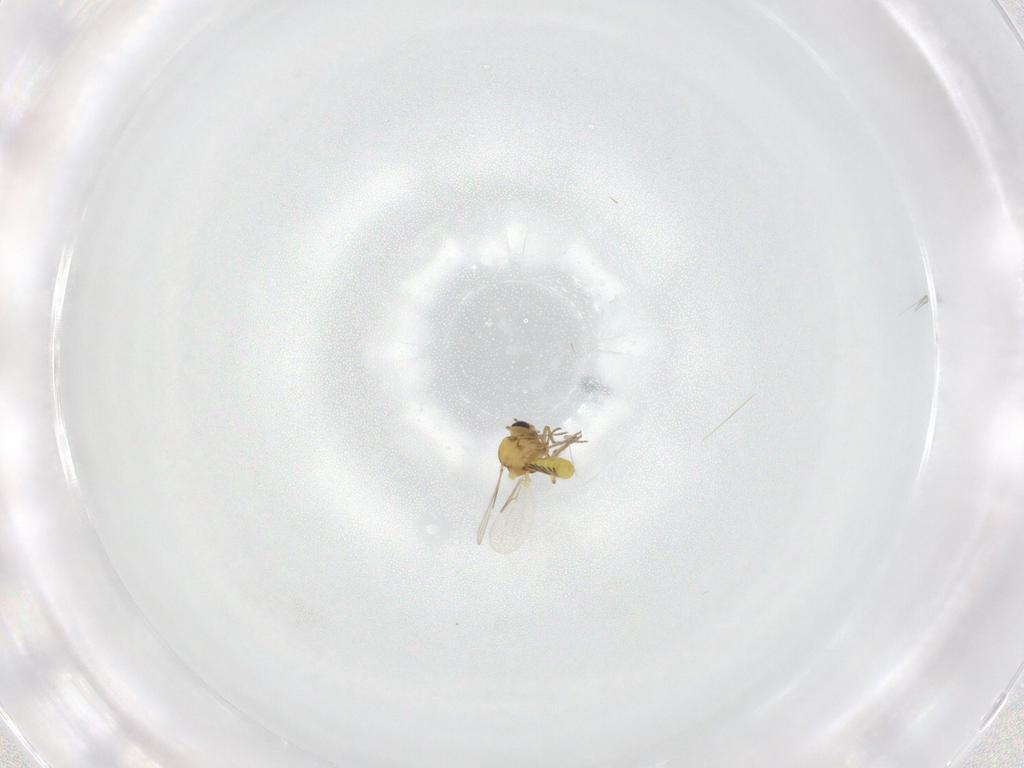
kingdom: Animalia
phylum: Arthropoda
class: Insecta
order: Diptera
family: Ceratopogonidae
